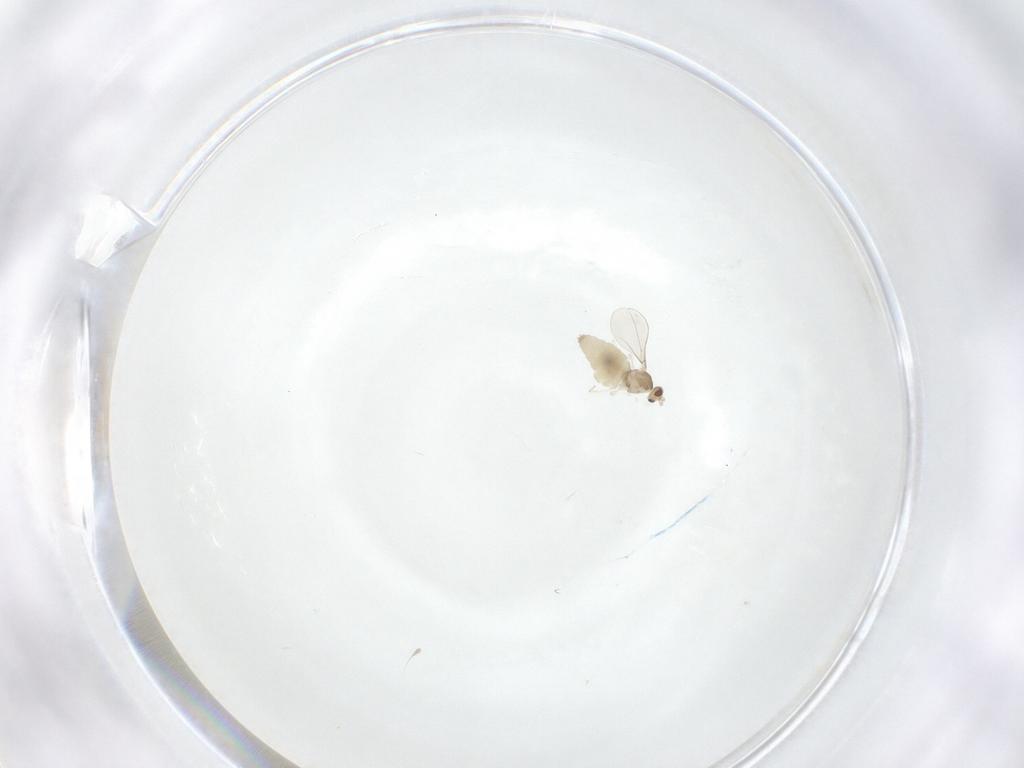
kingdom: Animalia
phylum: Arthropoda
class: Insecta
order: Diptera
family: Cecidomyiidae
